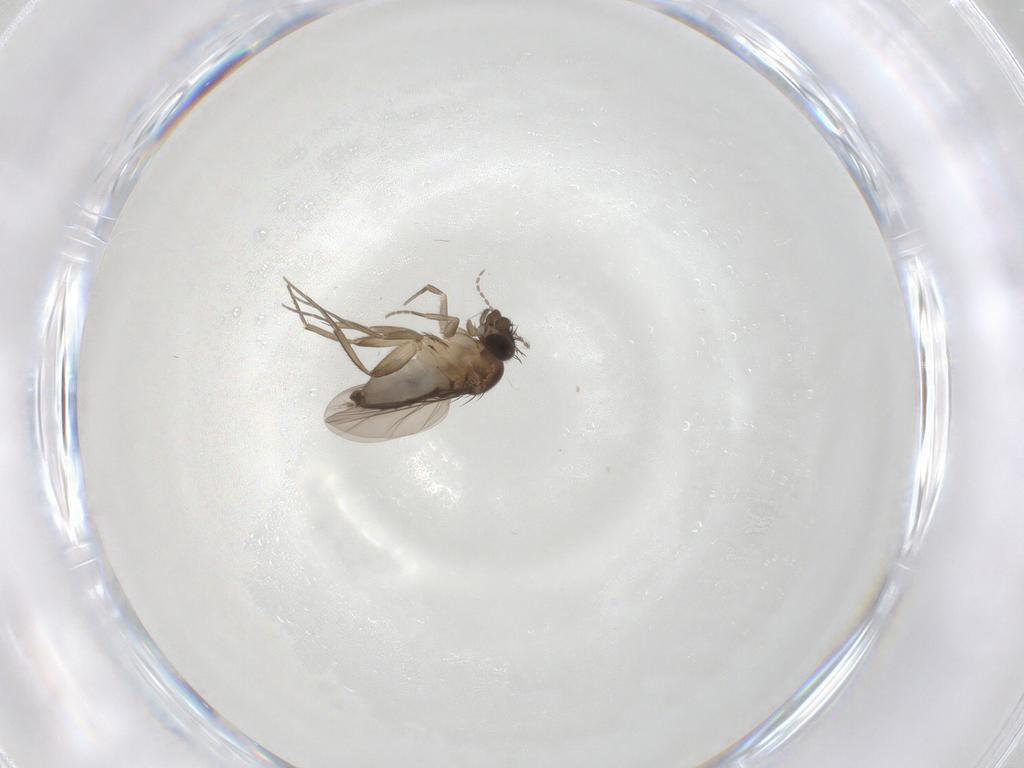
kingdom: Animalia
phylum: Arthropoda
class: Insecta
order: Diptera
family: Phoridae
